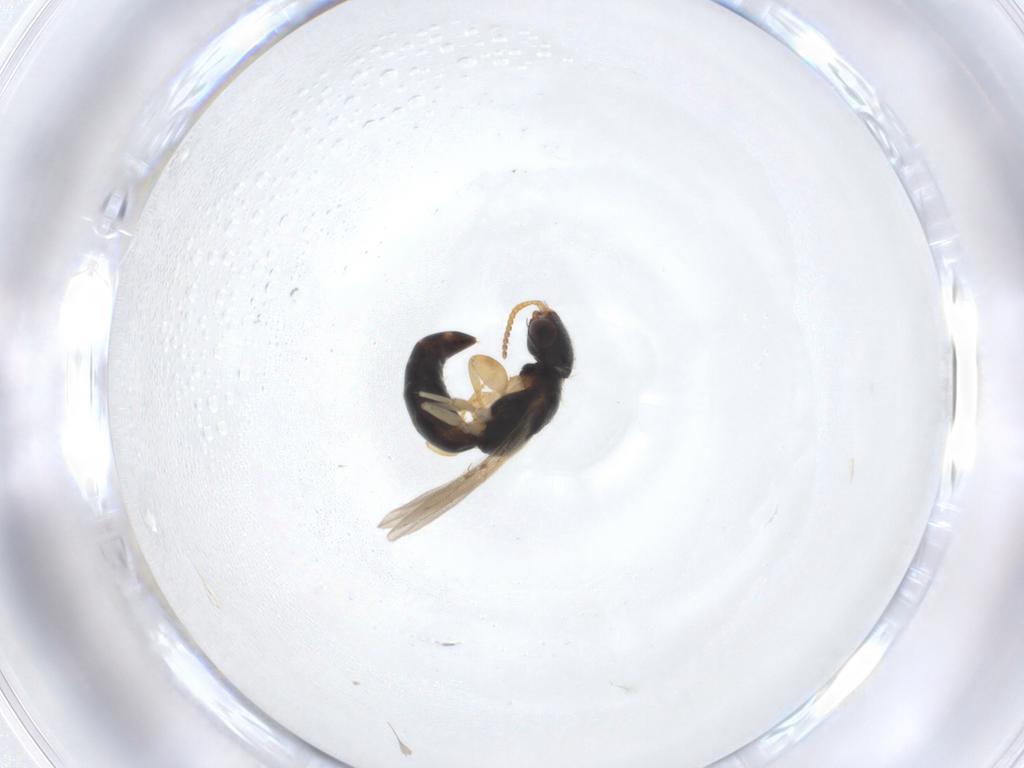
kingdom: Animalia
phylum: Arthropoda
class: Insecta
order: Hymenoptera
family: Bethylidae
